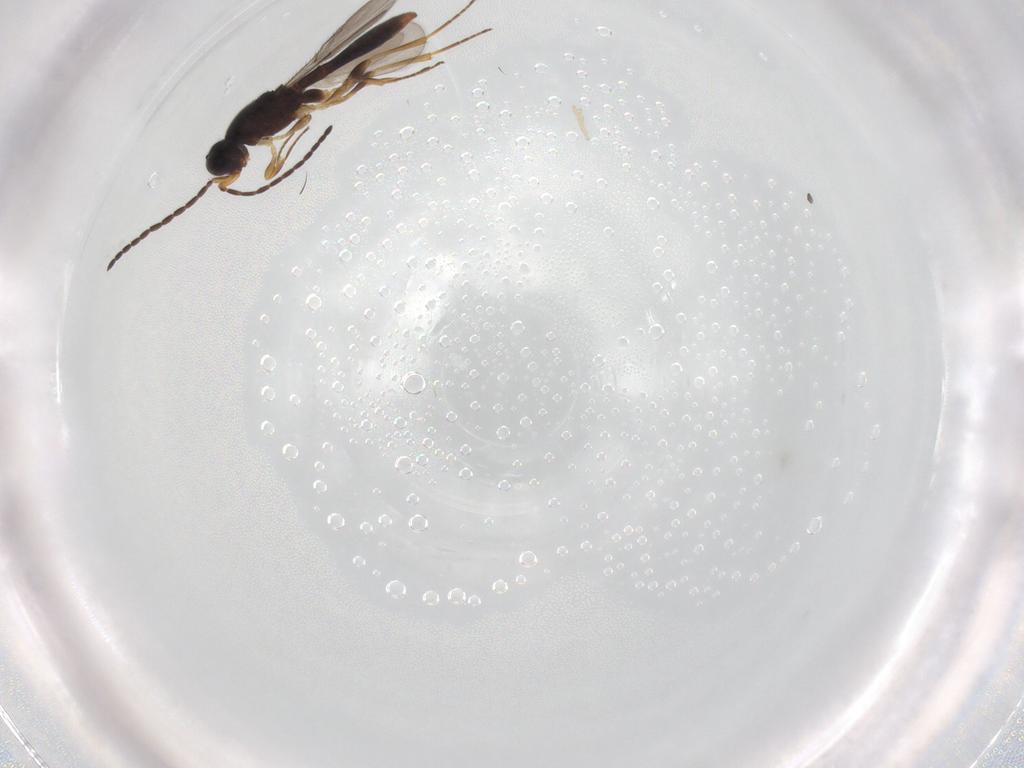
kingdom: Animalia
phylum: Arthropoda
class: Insecta
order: Hymenoptera
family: Scelionidae
